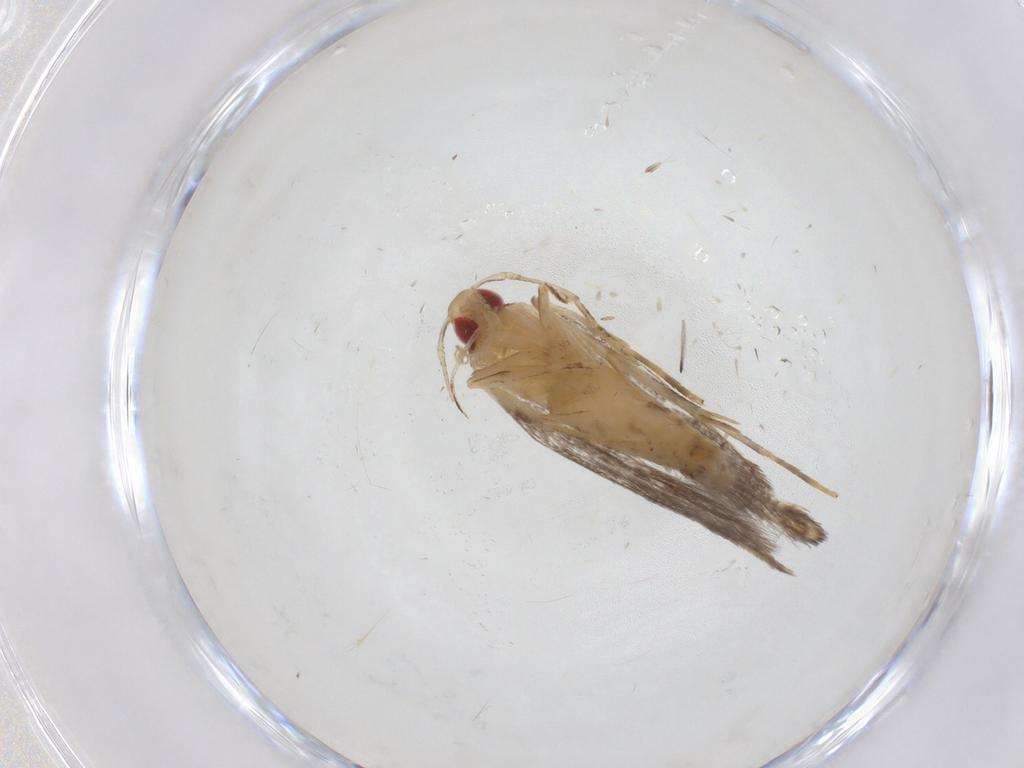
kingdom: Animalia
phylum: Arthropoda
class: Insecta
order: Lepidoptera
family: Cosmopterigidae
